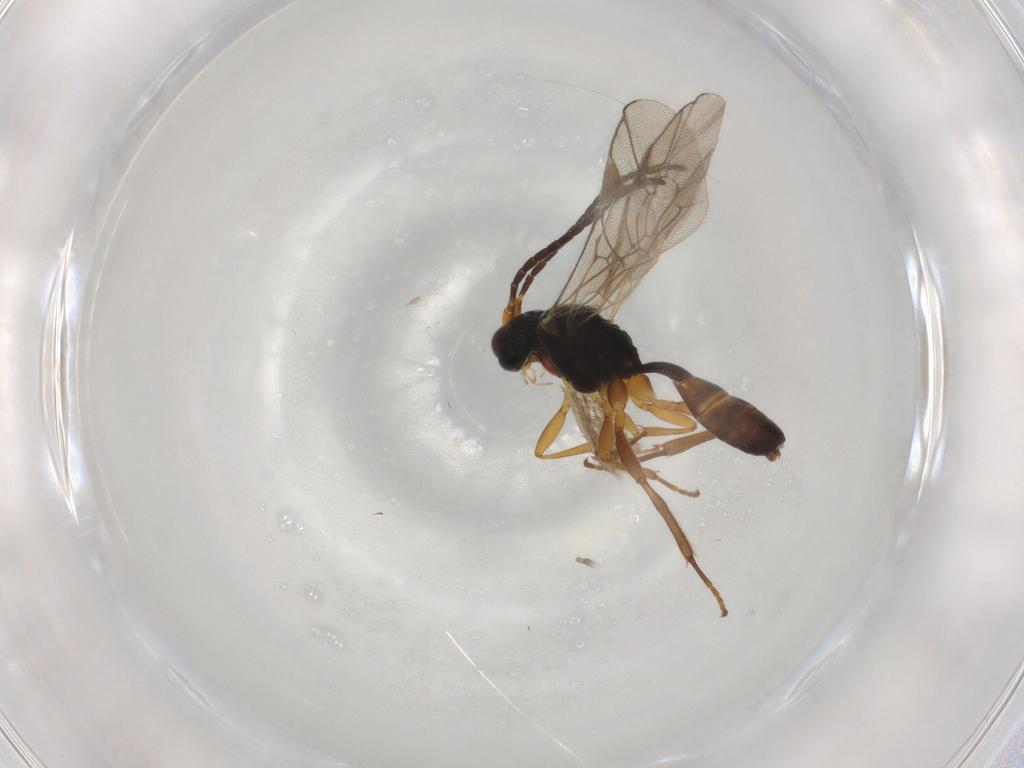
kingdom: Animalia
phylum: Arthropoda
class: Insecta
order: Hymenoptera
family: Ichneumonidae
